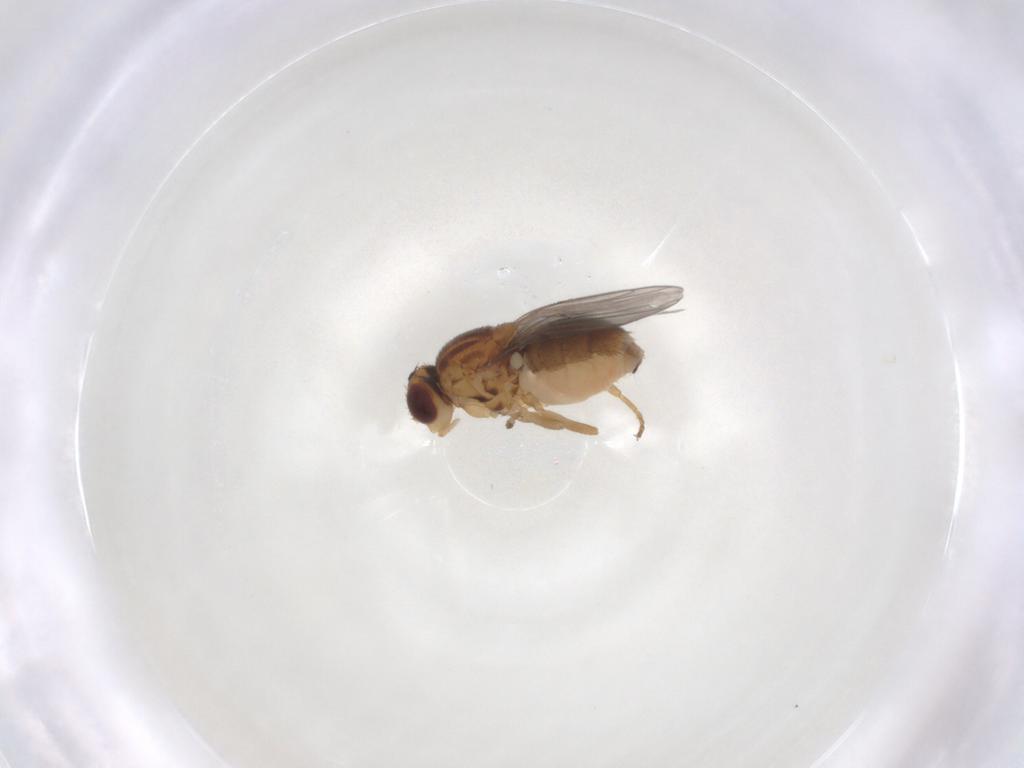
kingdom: Animalia
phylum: Arthropoda
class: Insecta
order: Diptera
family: Chloropidae
